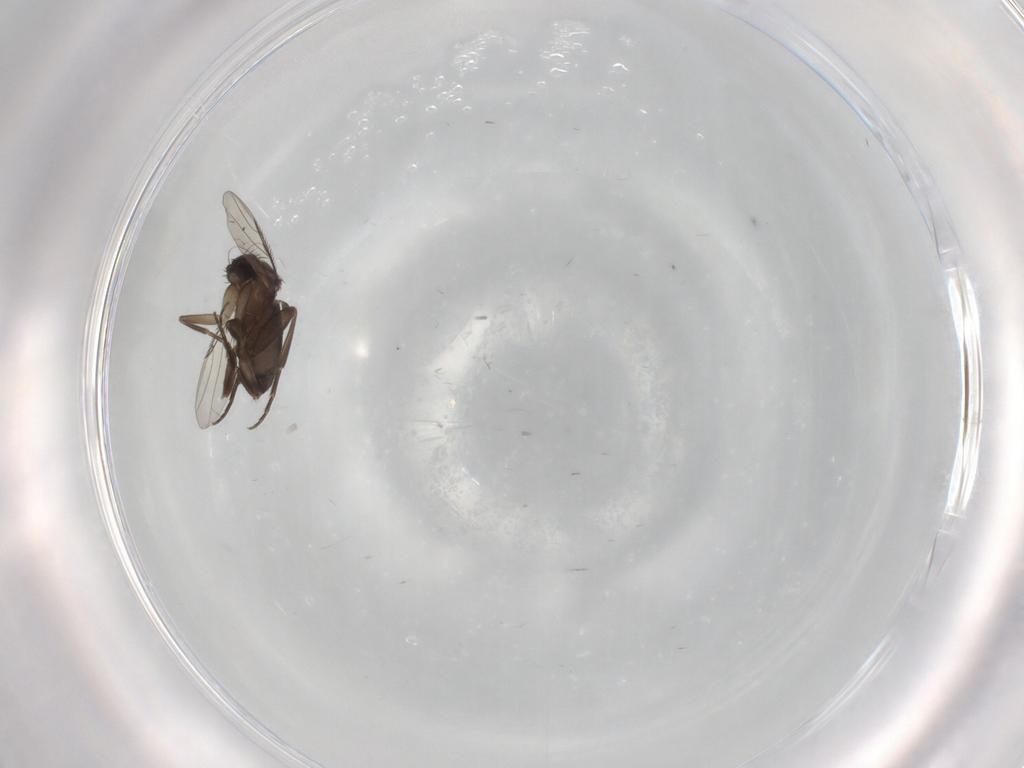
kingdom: Animalia
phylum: Arthropoda
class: Insecta
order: Diptera
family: Phoridae
